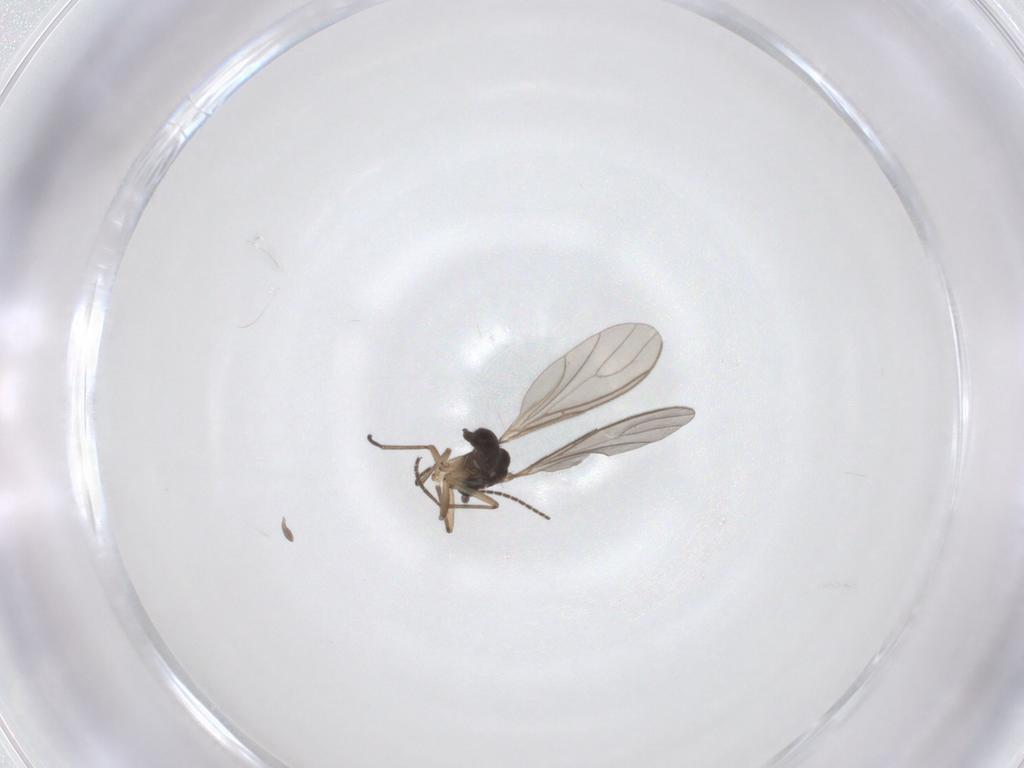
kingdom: Animalia
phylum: Arthropoda
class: Insecta
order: Diptera
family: Sciaridae
